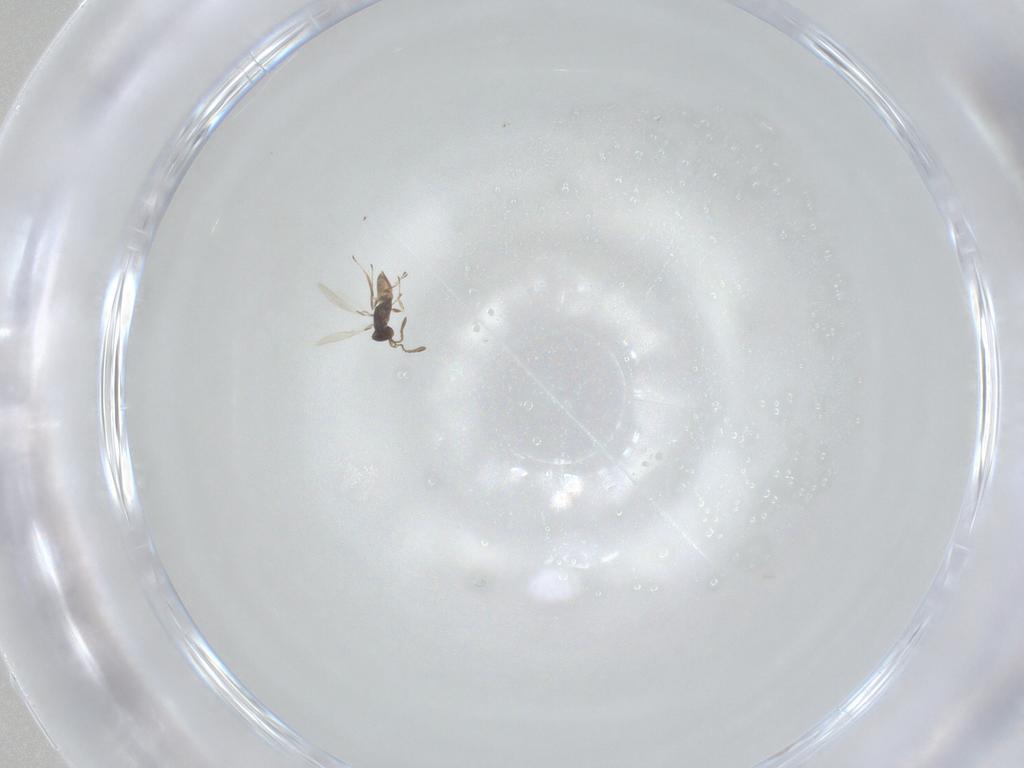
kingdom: Animalia
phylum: Arthropoda
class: Insecta
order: Hymenoptera
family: Mymaridae
